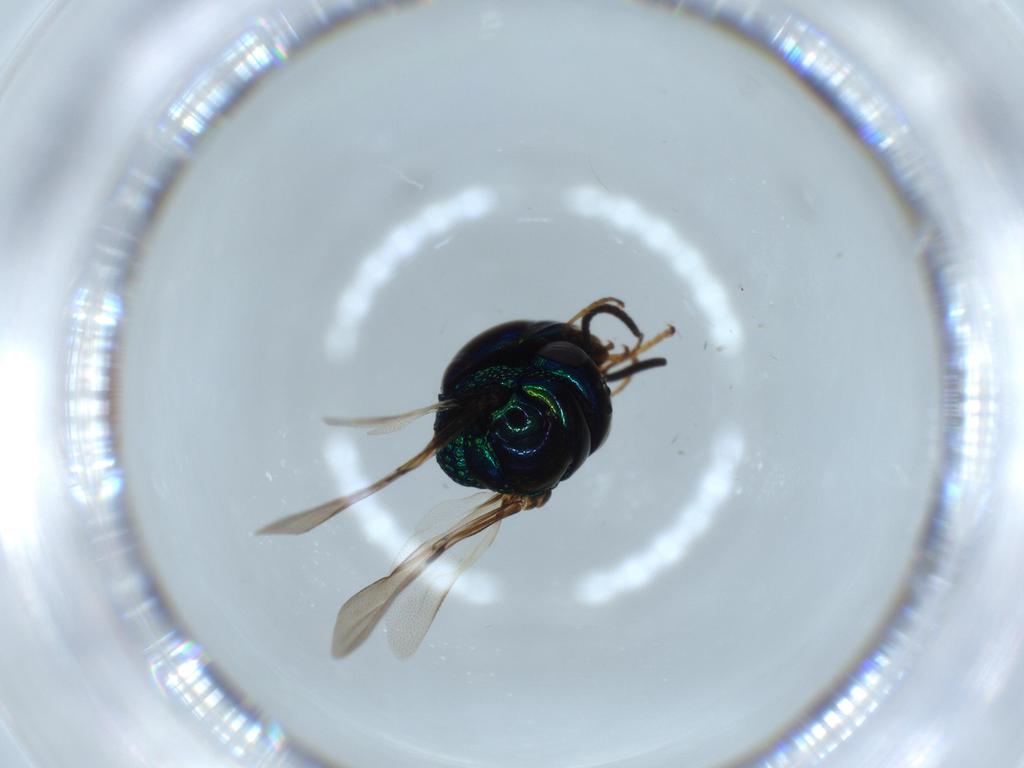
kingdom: Animalia
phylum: Arthropoda
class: Insecta
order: Hymenoptera
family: Chrysididae
